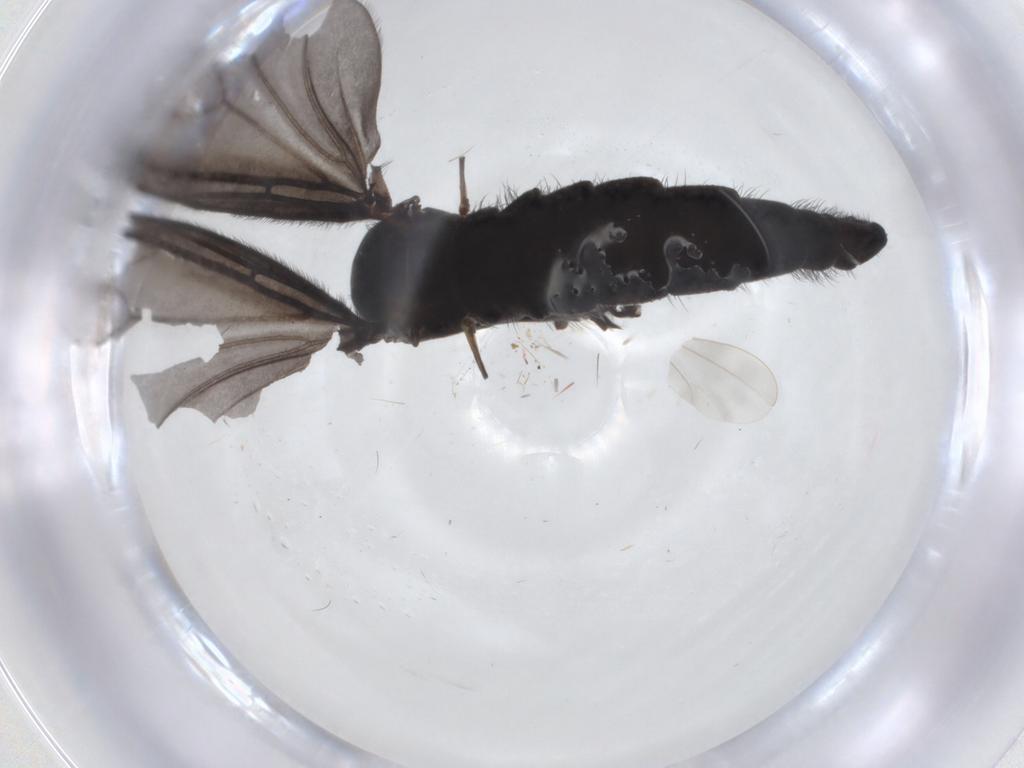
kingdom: Animalia
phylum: Arthropoda
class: Insecta
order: Diptera
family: Sciaridae
